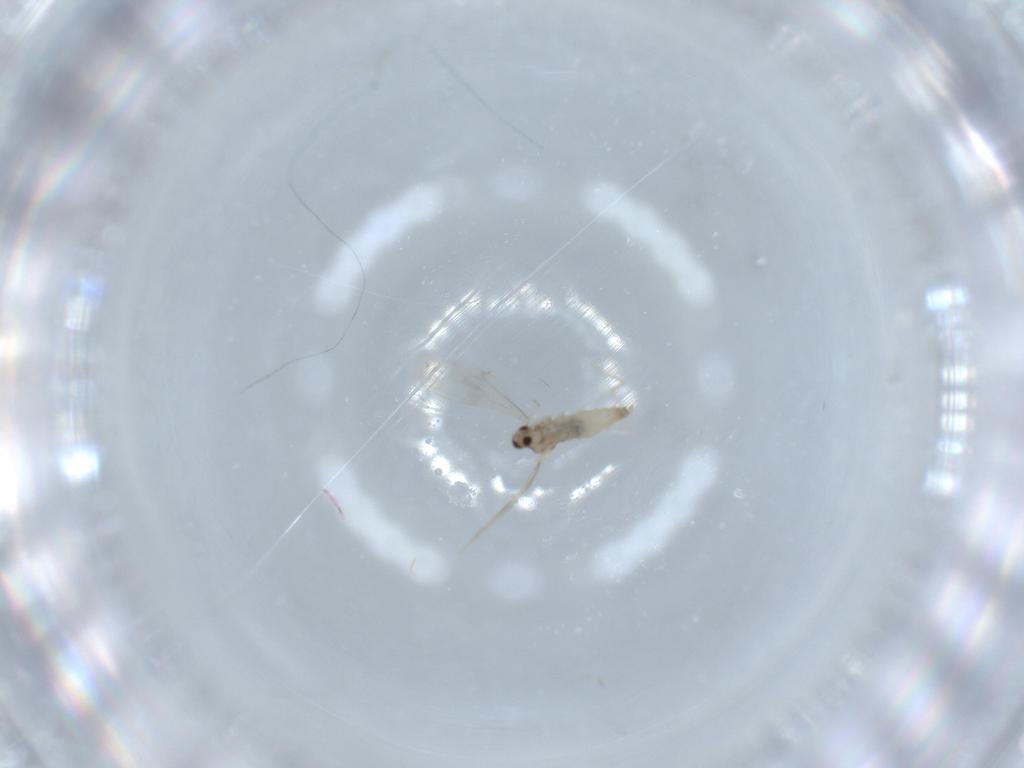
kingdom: Animalia
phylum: Arthropoda
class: Insecta
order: Diptera
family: Cecidomyiidae
